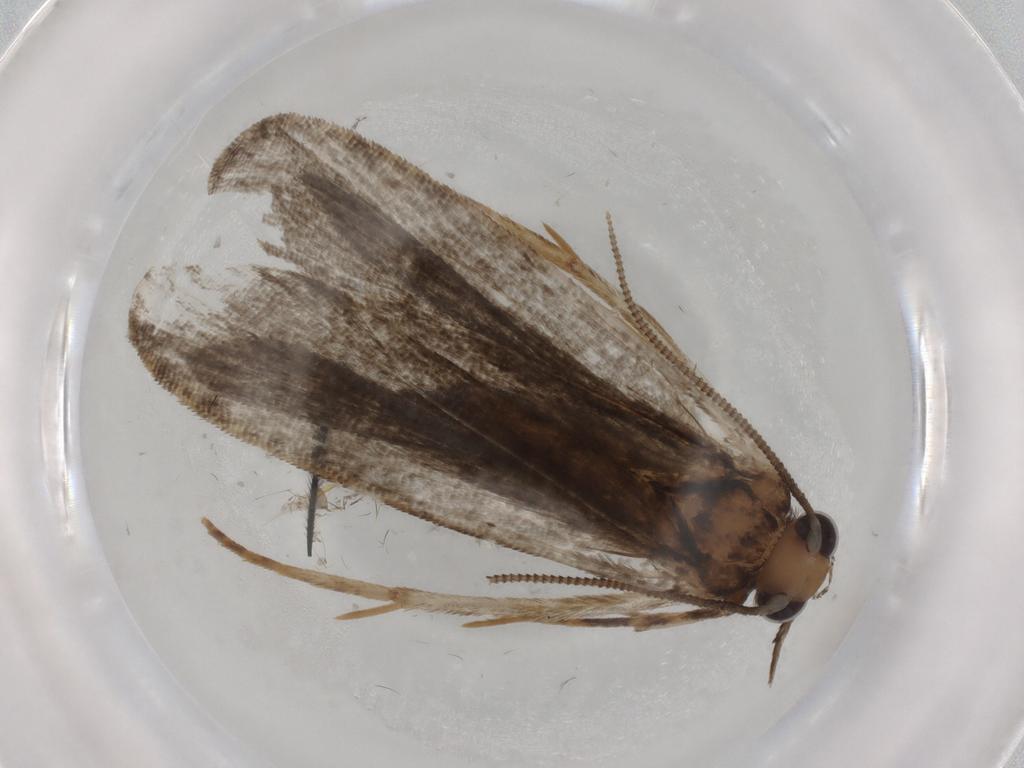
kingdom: Animalia
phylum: Arthropoda
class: Insecta
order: Lepidoptera
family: Tineidae
